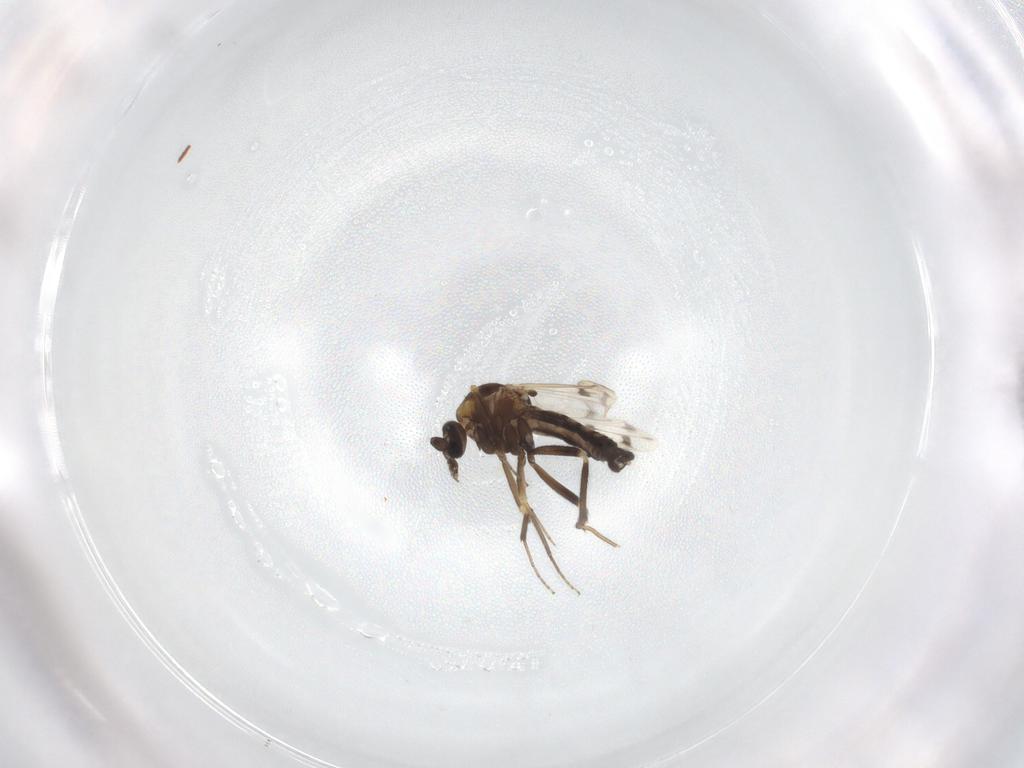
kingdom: Animalia
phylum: Arthropoda
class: Insecta
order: Diptera
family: Ceratopogonidae
